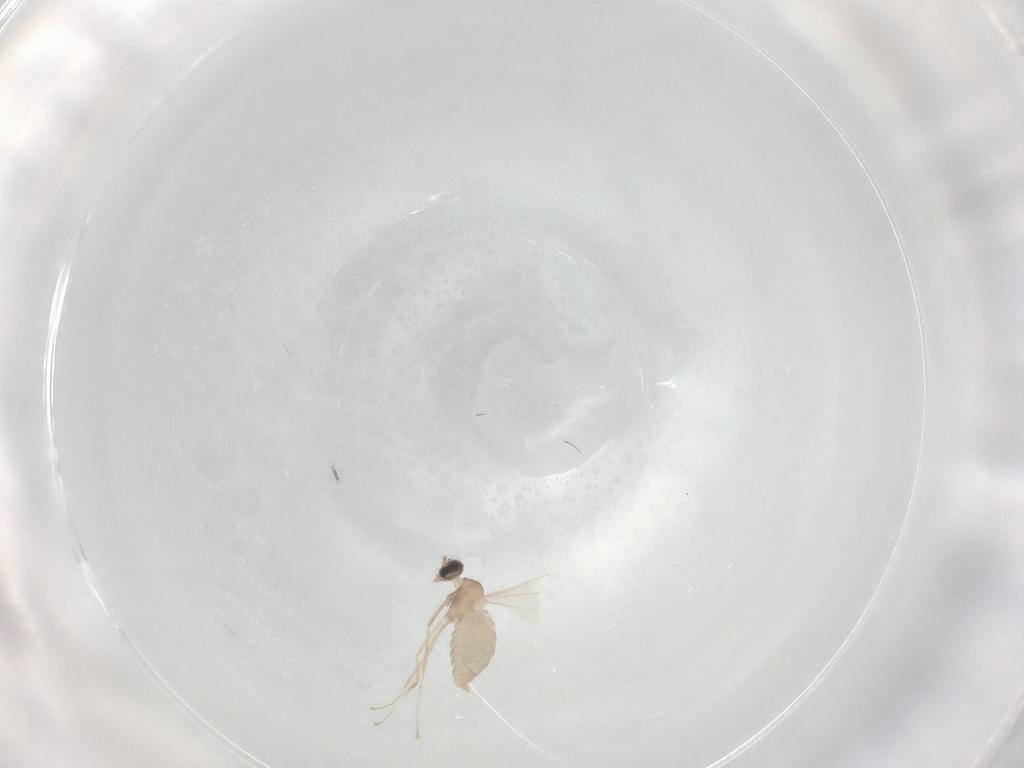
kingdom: Animalia
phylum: Arthropoda
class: Insecta
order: Diptera
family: Cecidomyiidae
